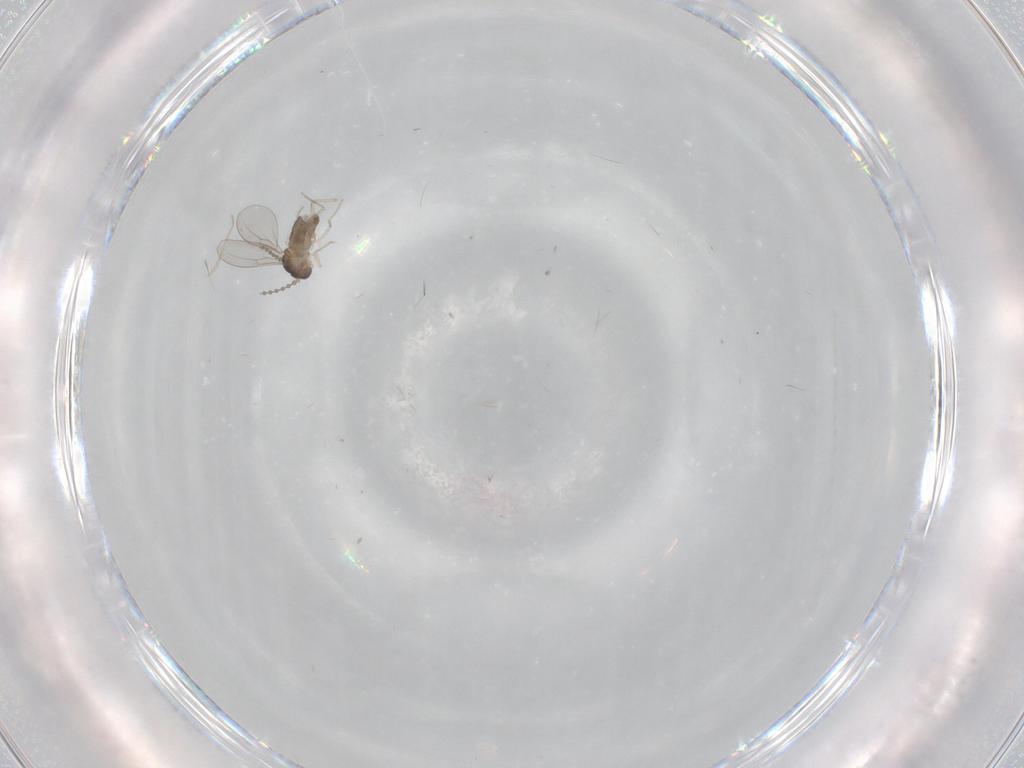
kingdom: Animalia
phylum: Arthropoda
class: Insecta
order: Diptera
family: Cecidomyiidae
